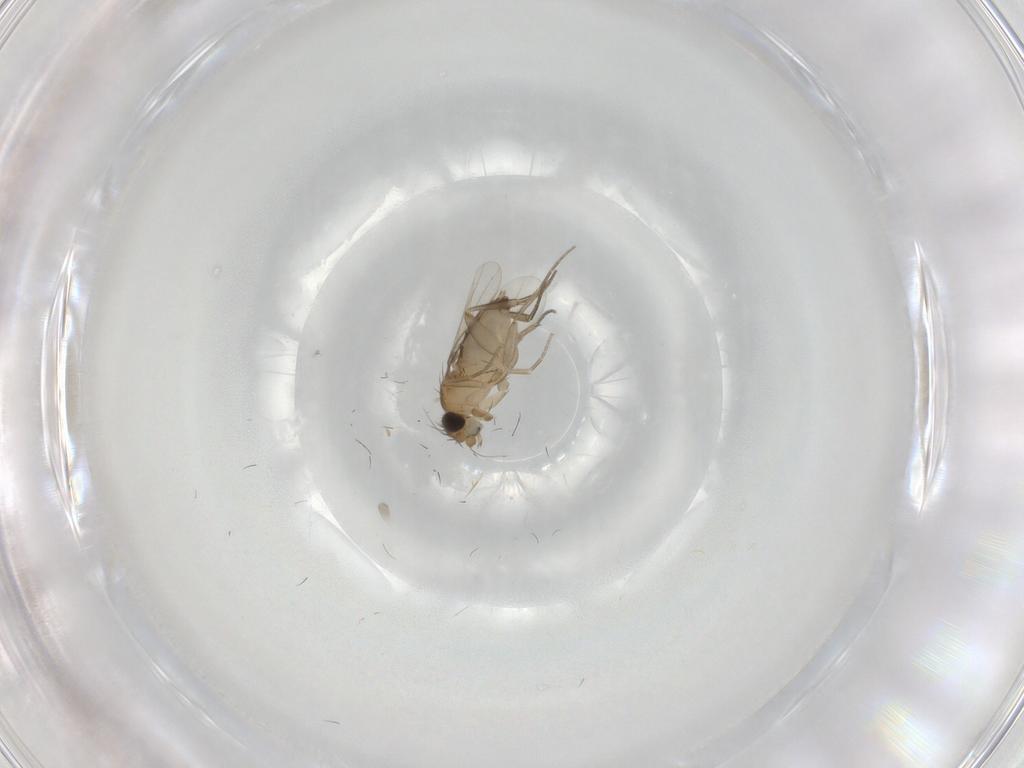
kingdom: Animalia
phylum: Arthropoda
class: Insecta
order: Diptera
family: Phoridae
